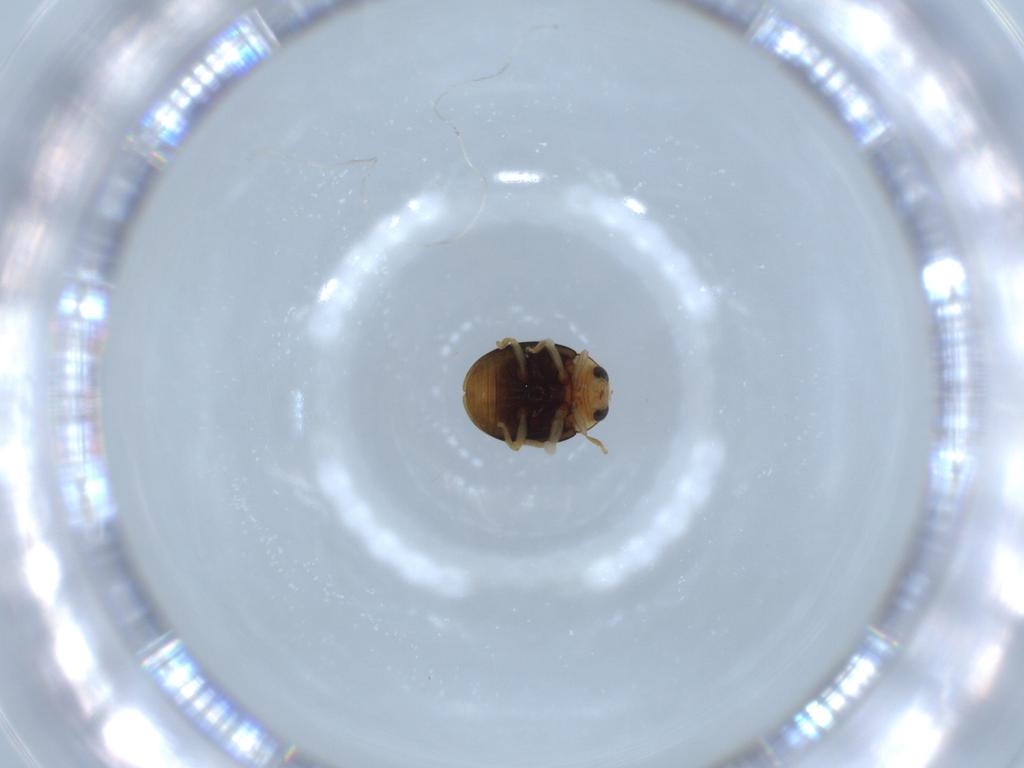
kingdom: Animalia
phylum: Arthropoda
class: Insecta
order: Coleoptera
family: Coccinellidae
